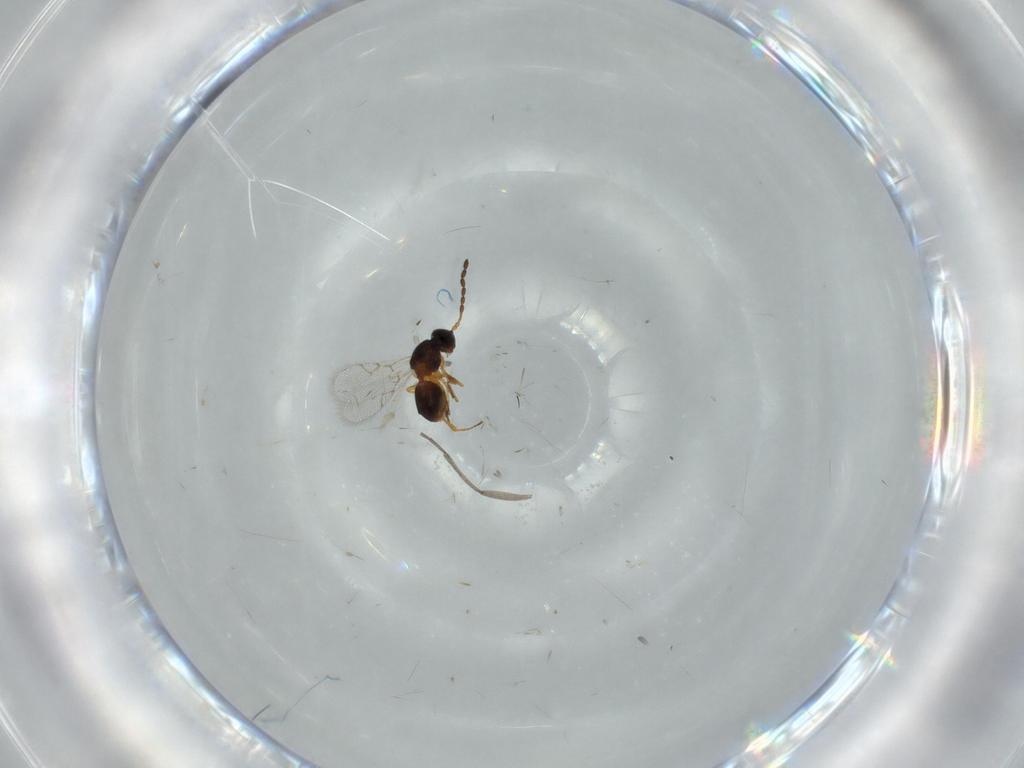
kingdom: Animalia
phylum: Arthropoda
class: Insecta
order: Hymenoptera
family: Figitidae
